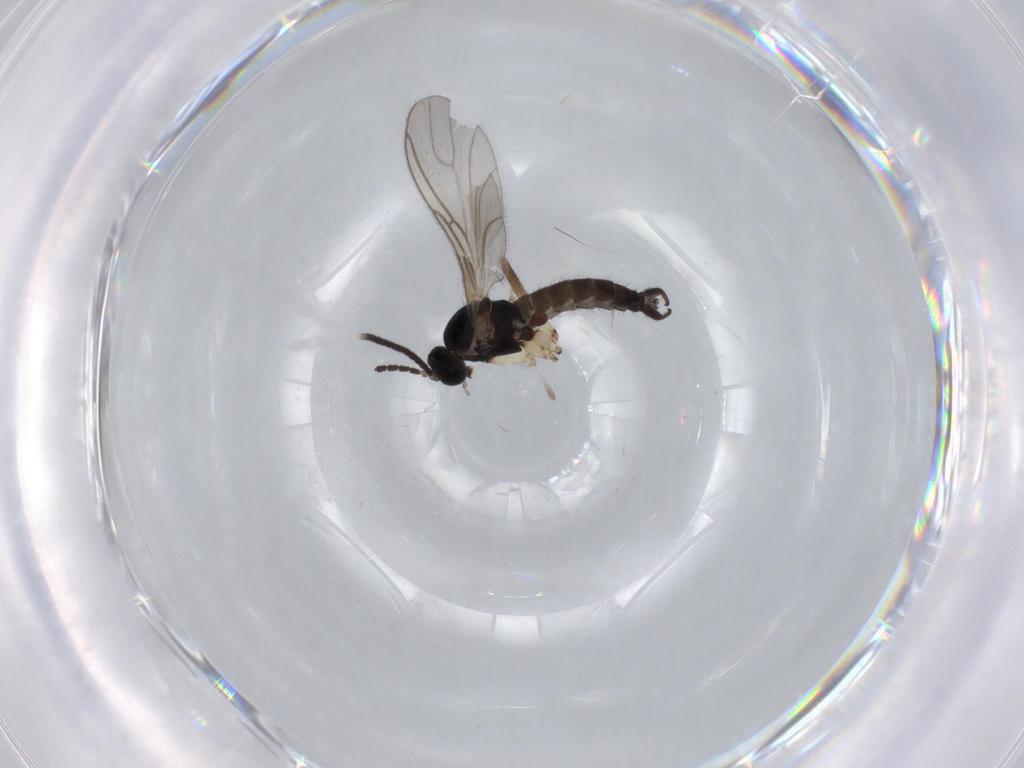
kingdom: Animalia
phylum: Arthropoda
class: Insecta
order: Diptera
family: Sciaridae
